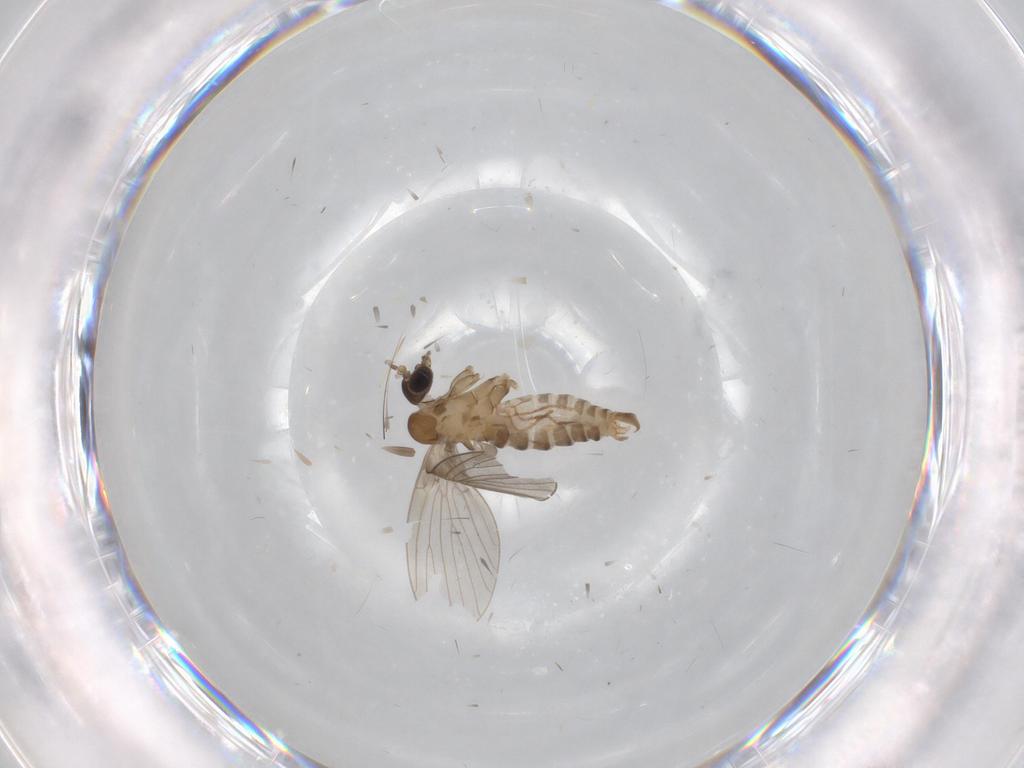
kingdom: Animalia
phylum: Arthropoda
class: Insecta
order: Diptera
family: Psychodidae
